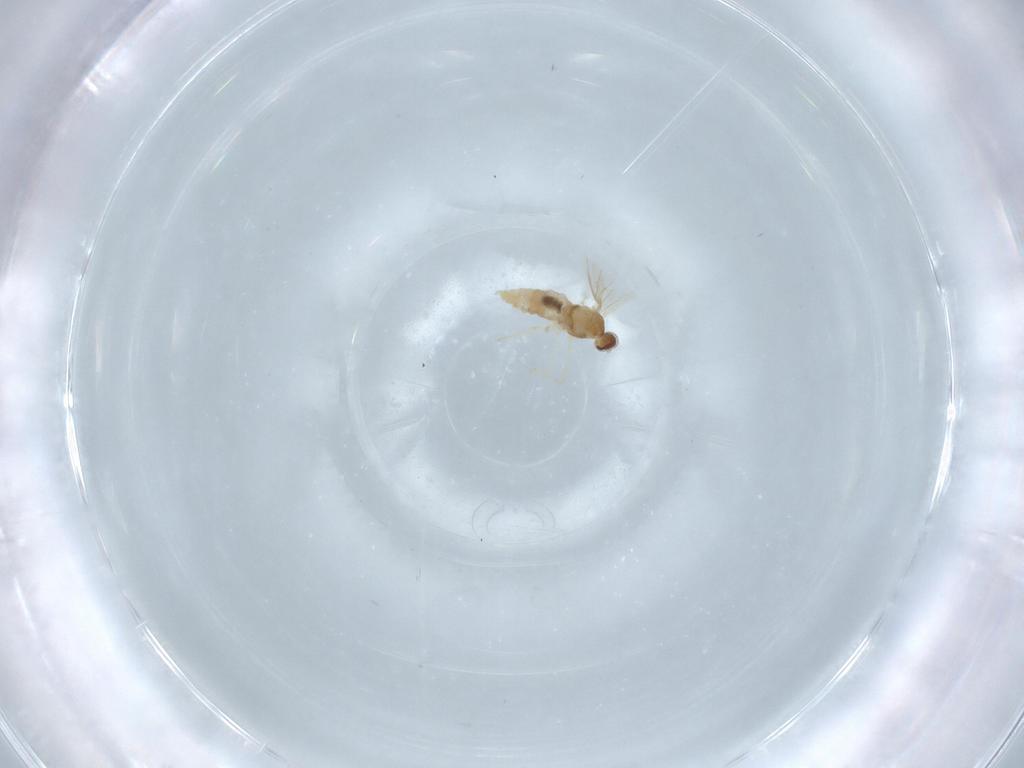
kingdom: Animalia
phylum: Arthropoda
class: Insecta
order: Diptera
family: Cecidomyiidae
